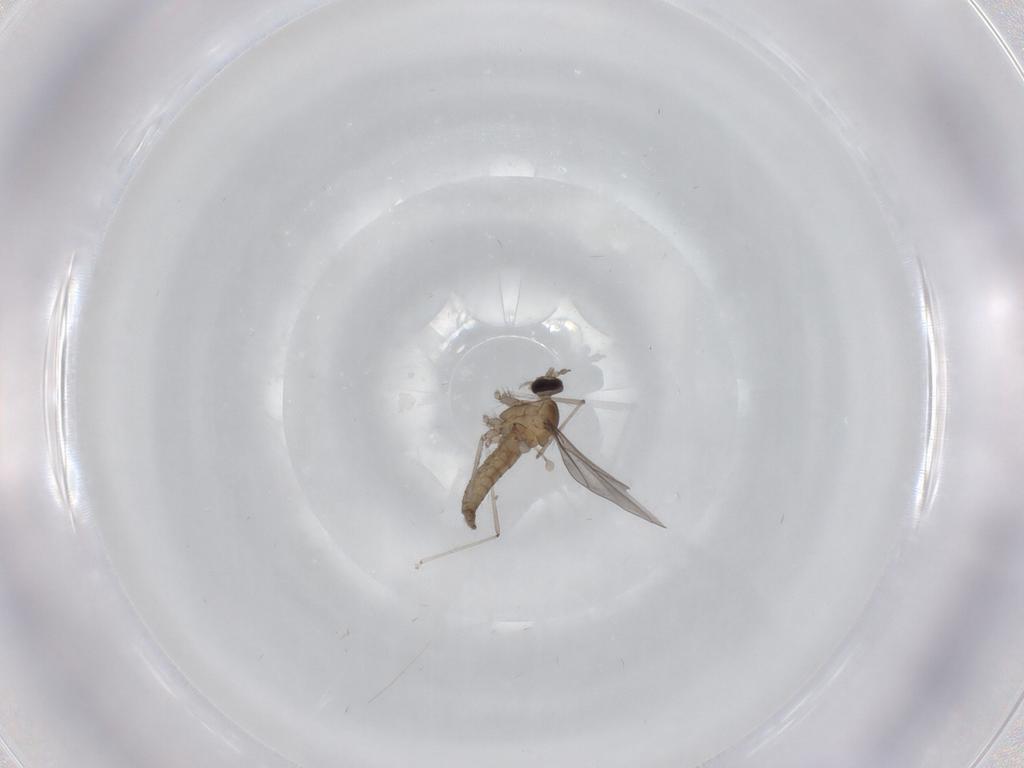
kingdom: Animalia
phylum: Arthropoda
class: Insecta
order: Diptera
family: Cecidomyiidae
